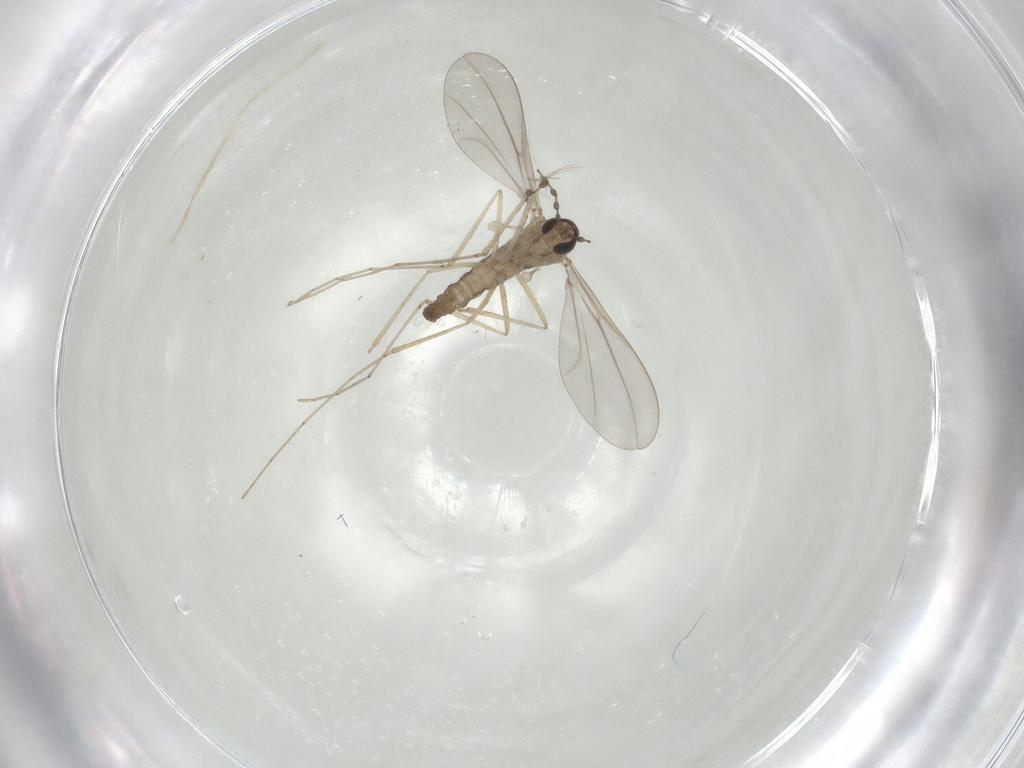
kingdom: Animalia
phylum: Arthropoda
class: Insecta
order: Diptera
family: Cecidomyiidae
